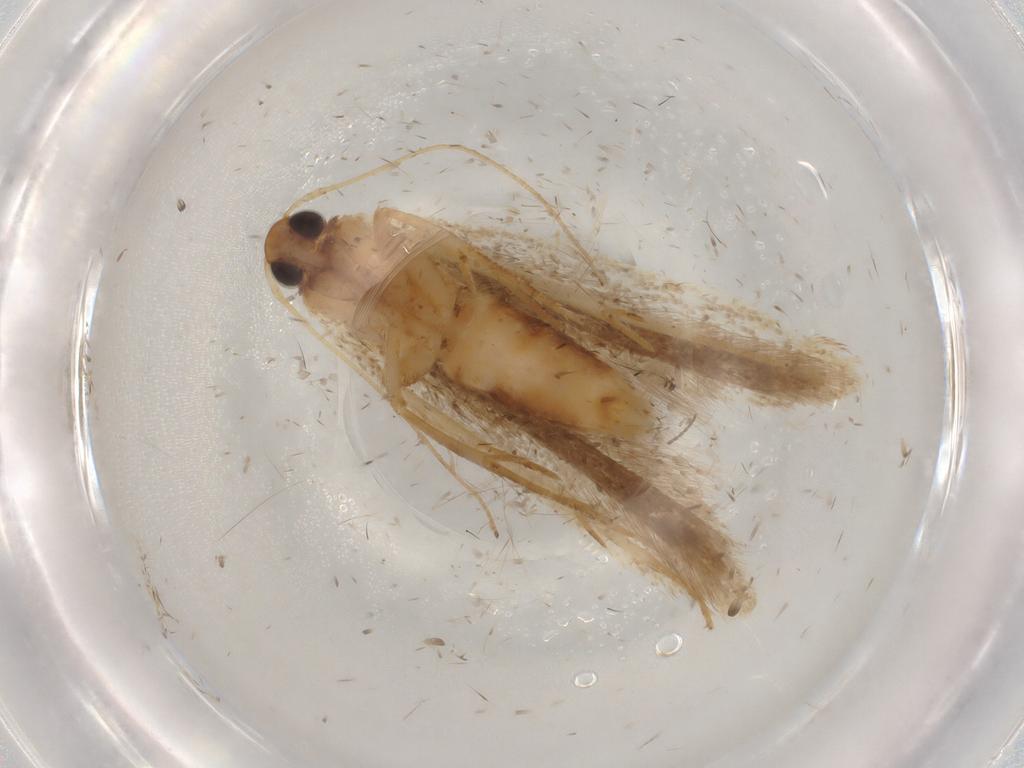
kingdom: Animalia
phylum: Arthropoda
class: Insecta
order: Lepidoptera
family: Gelechiidae
